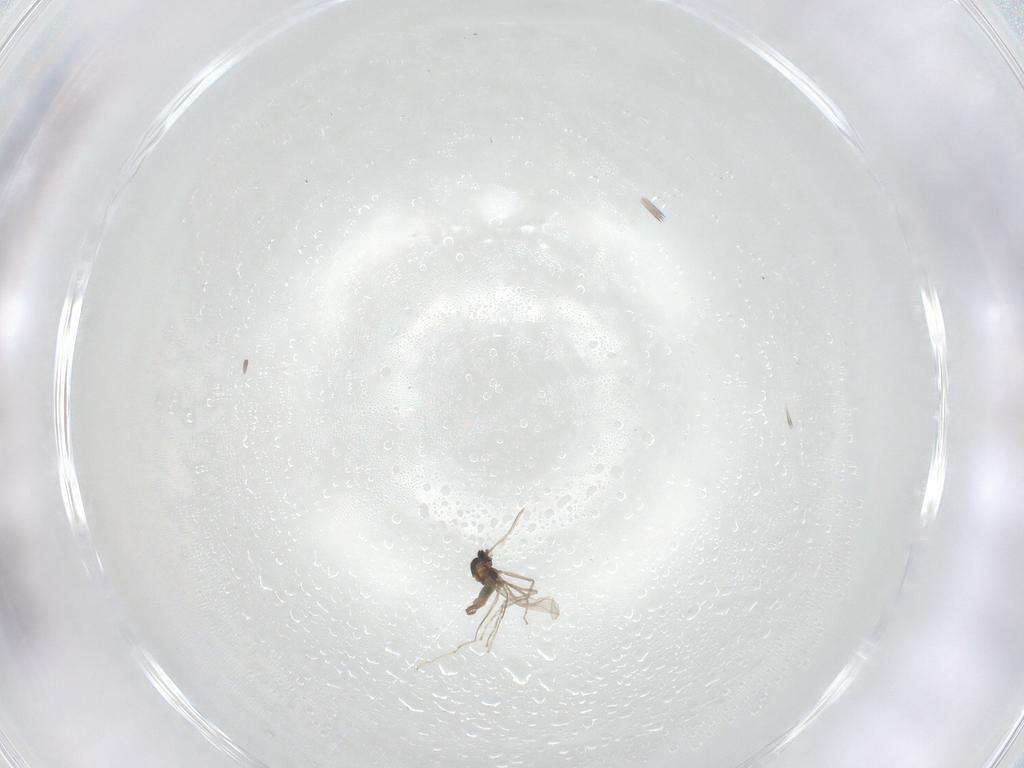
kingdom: Animalia
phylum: Arthropoda
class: Insecta
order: Diptera
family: Cecidomyiidae
